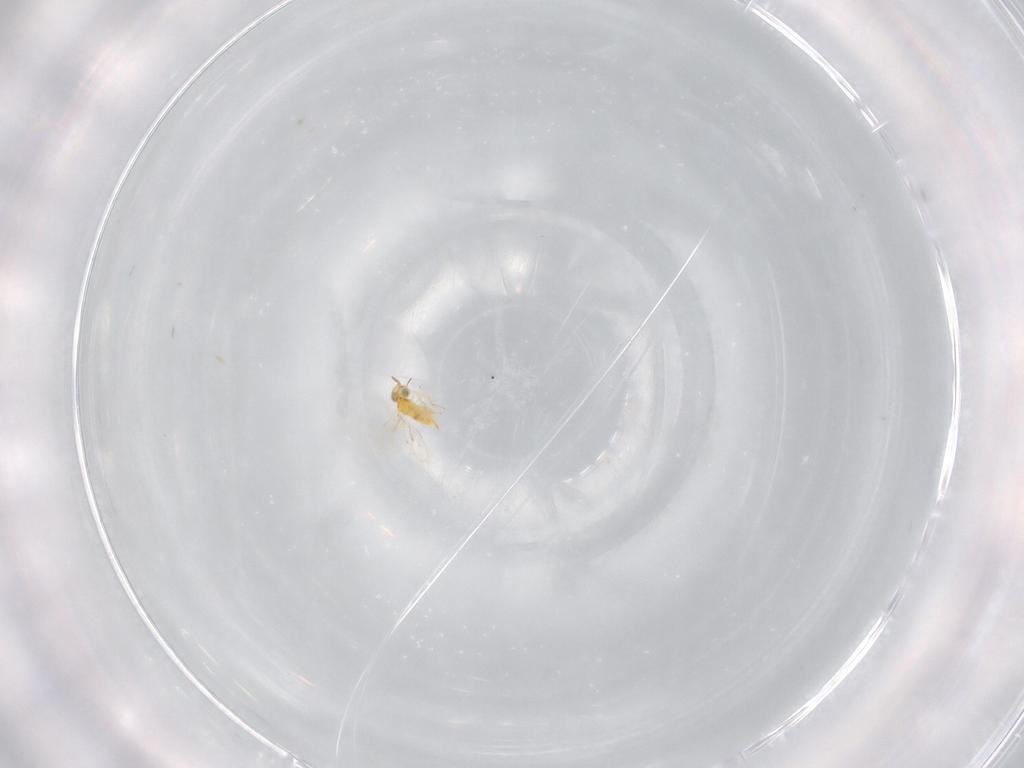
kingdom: Animalia
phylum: Arthropoda
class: Insecta
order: Hymenoptera
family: Aphelinidae
